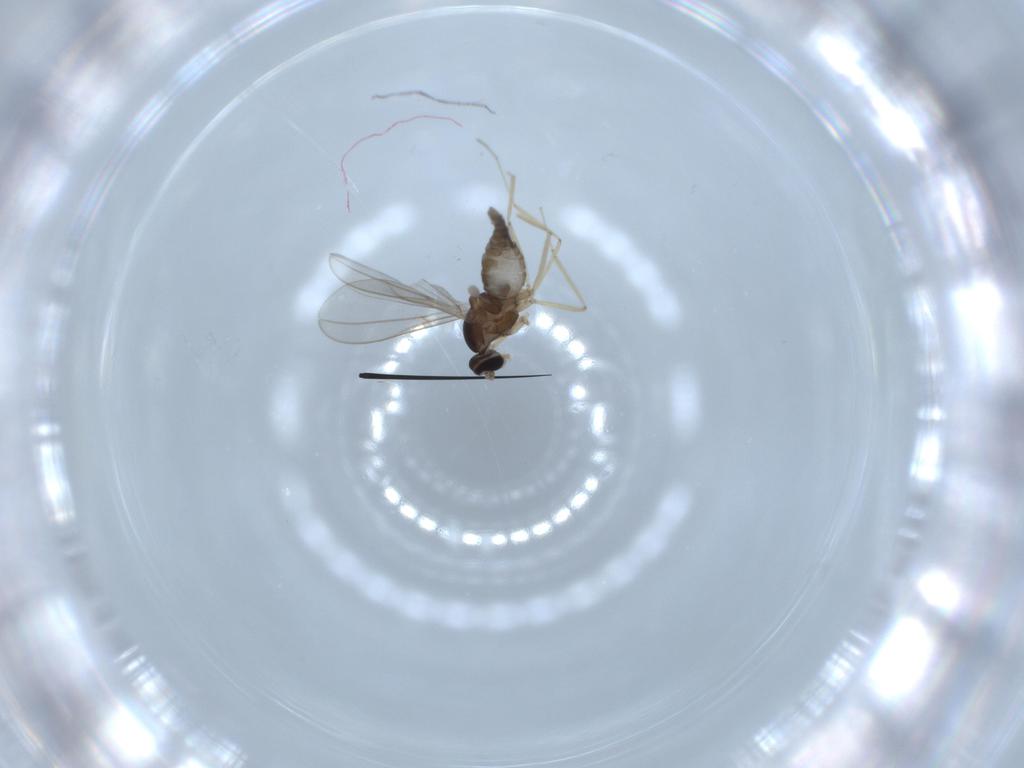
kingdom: Animalia
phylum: Arthropoda
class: Insecta
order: Diptera
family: Cecidomyiidae
